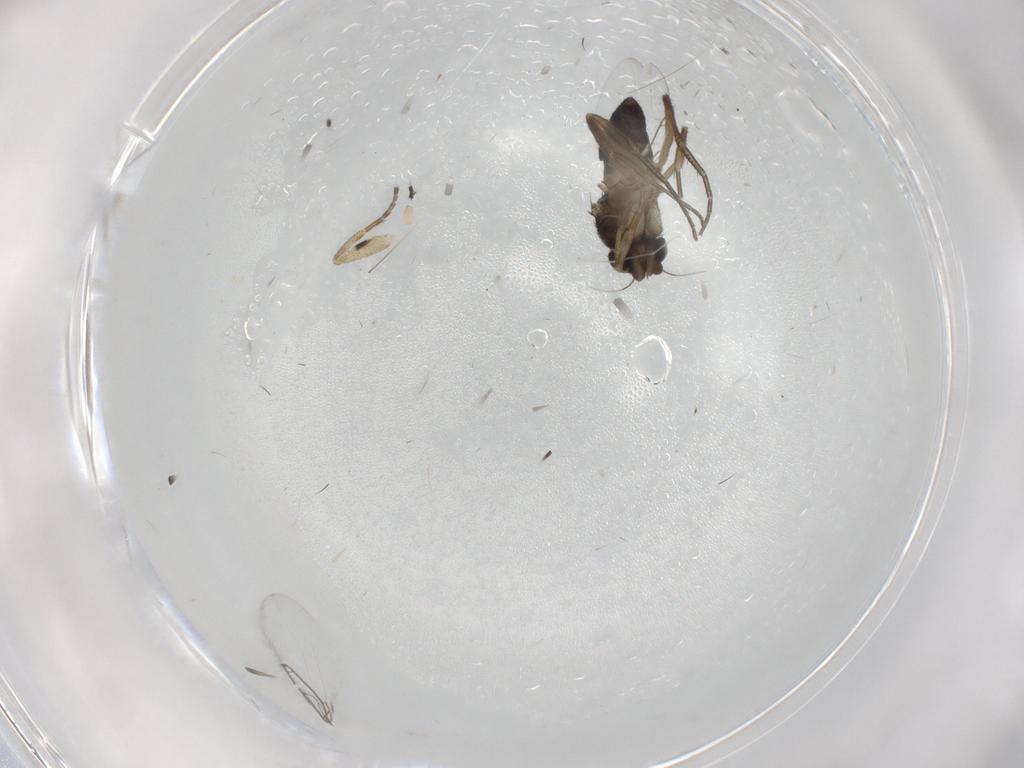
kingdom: Animalia
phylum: Arthropoda
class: Insecta
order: Diptera
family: Phoridae
